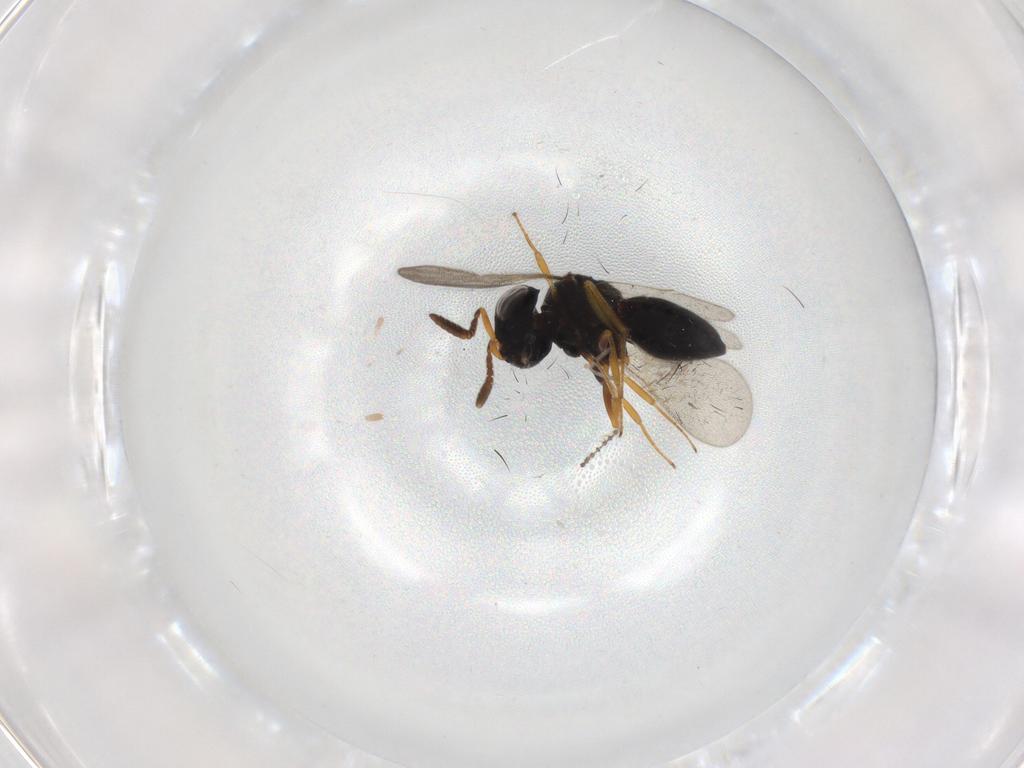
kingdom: Animalia
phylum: Arthropoda
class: Insecta
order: Hymenoptera
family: Scelionidae
